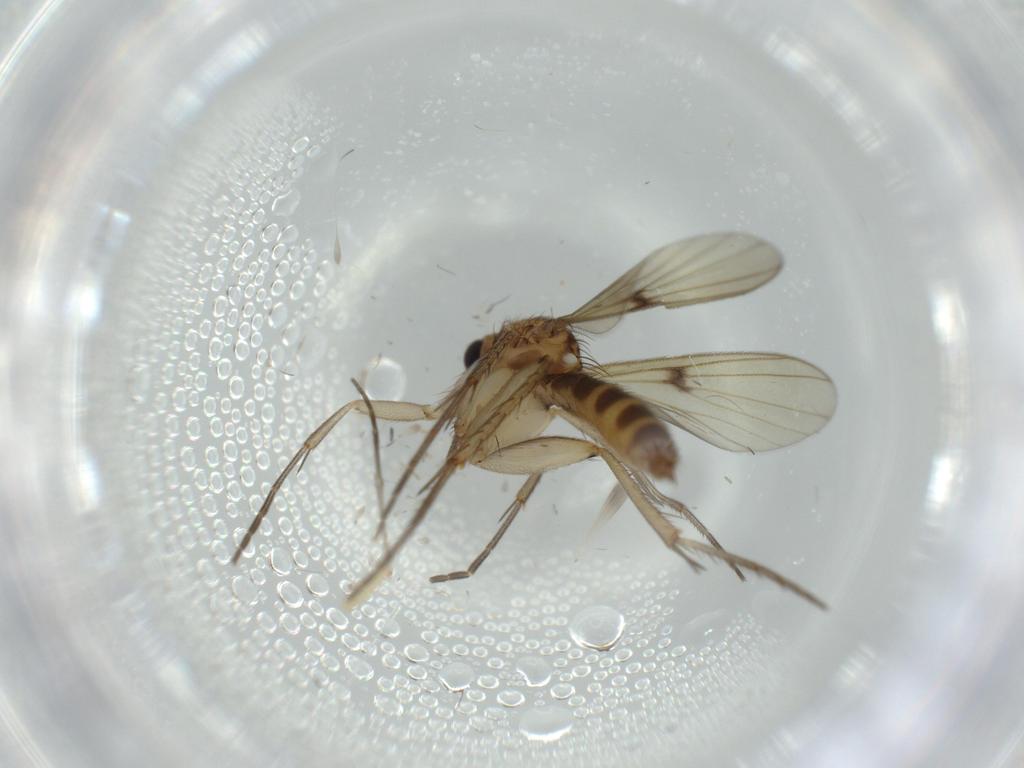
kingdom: Animalia
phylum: Arthropoda
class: Insecta
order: Diptera
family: Sciaridae
